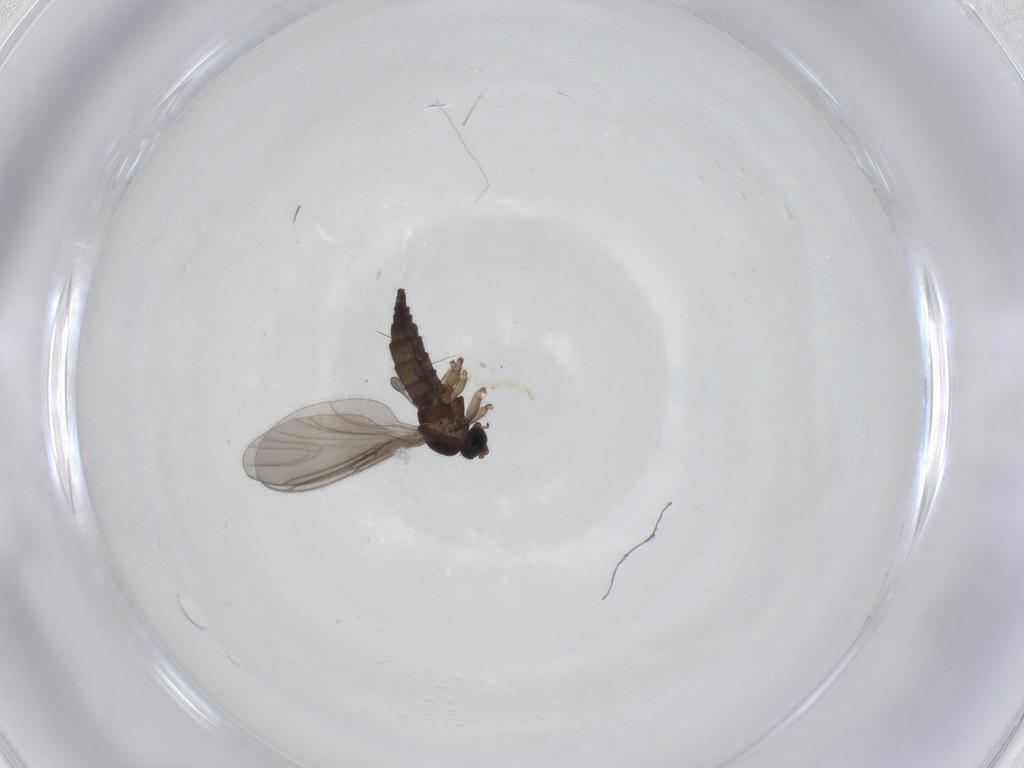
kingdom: Animalia
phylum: Arthropoda
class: Insecta
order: Diptera
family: Sciaridae
